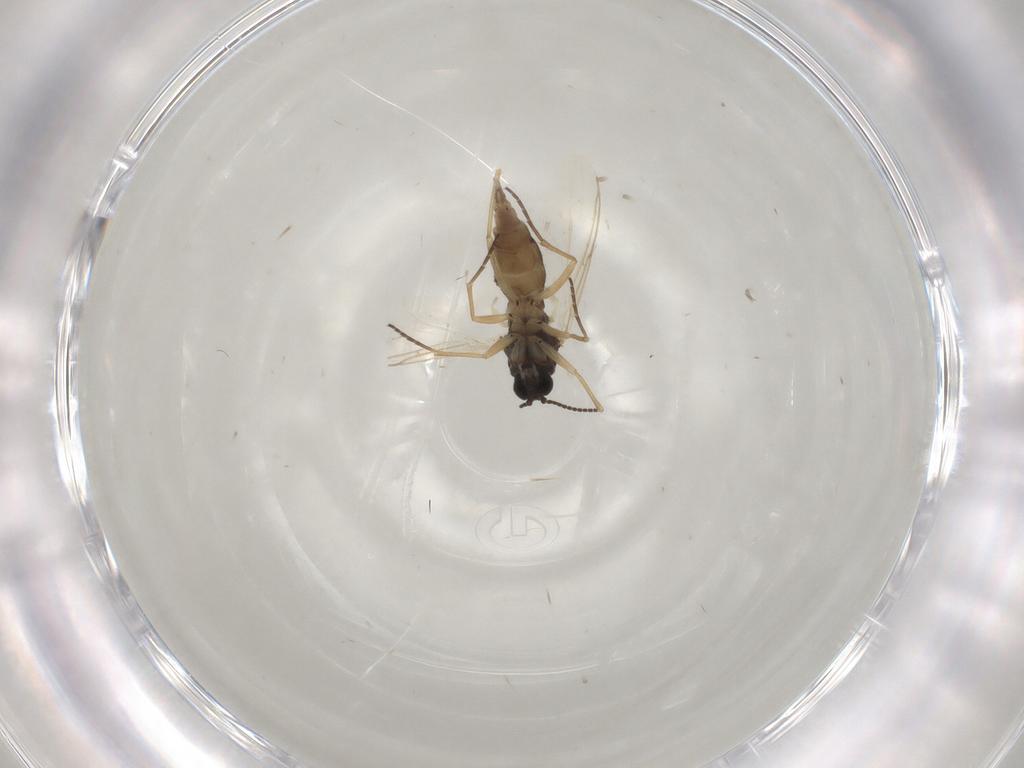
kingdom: Animalia
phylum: Arthropoda
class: Insecta
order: Diptera
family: Sciaridae
